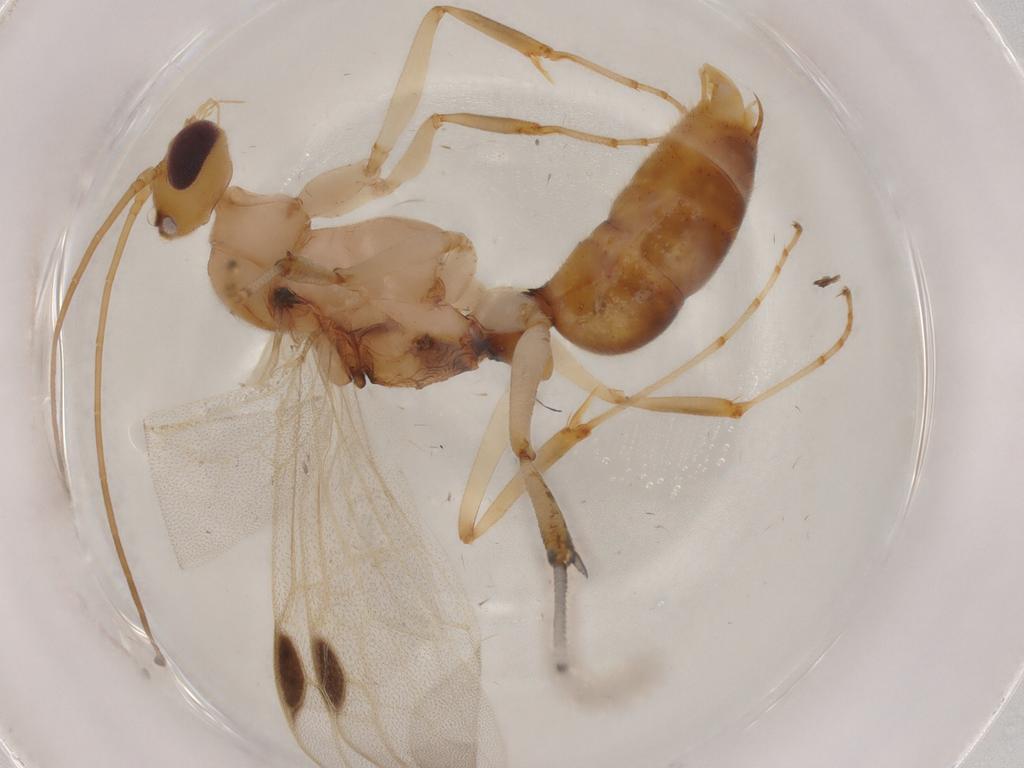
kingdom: Animalia
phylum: Arthropoda
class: Insecta
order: Hymenoptera
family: Formicidae
